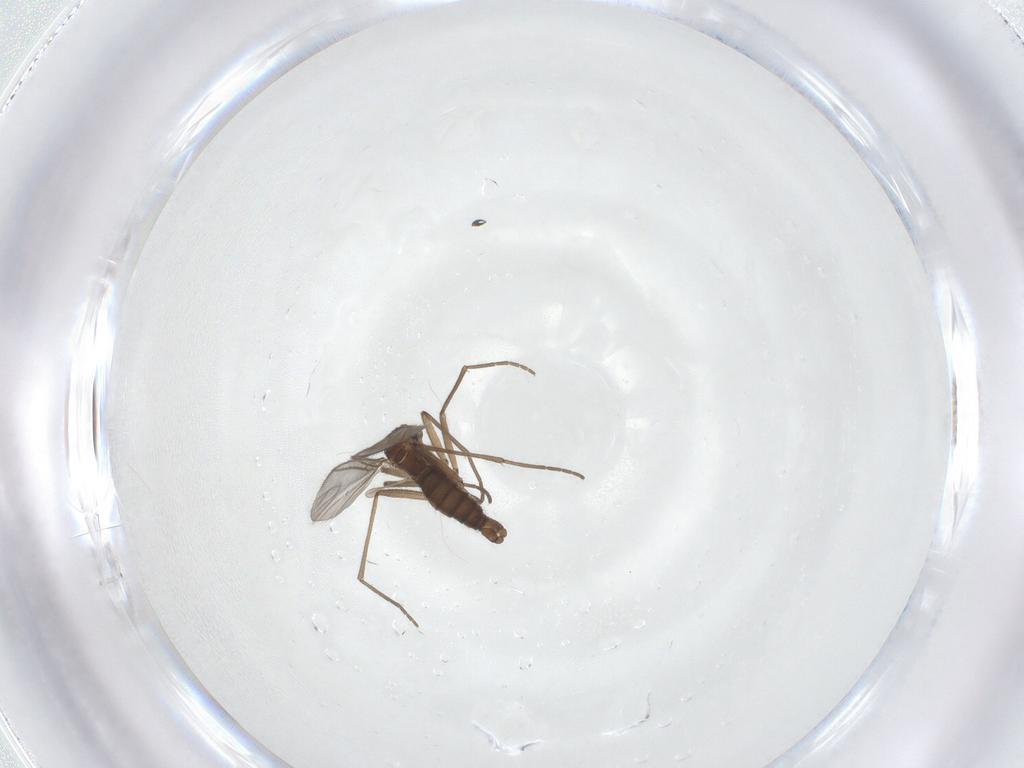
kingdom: Animalia
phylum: Arthropoda
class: Insecta
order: Diptera
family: Sciaridae
